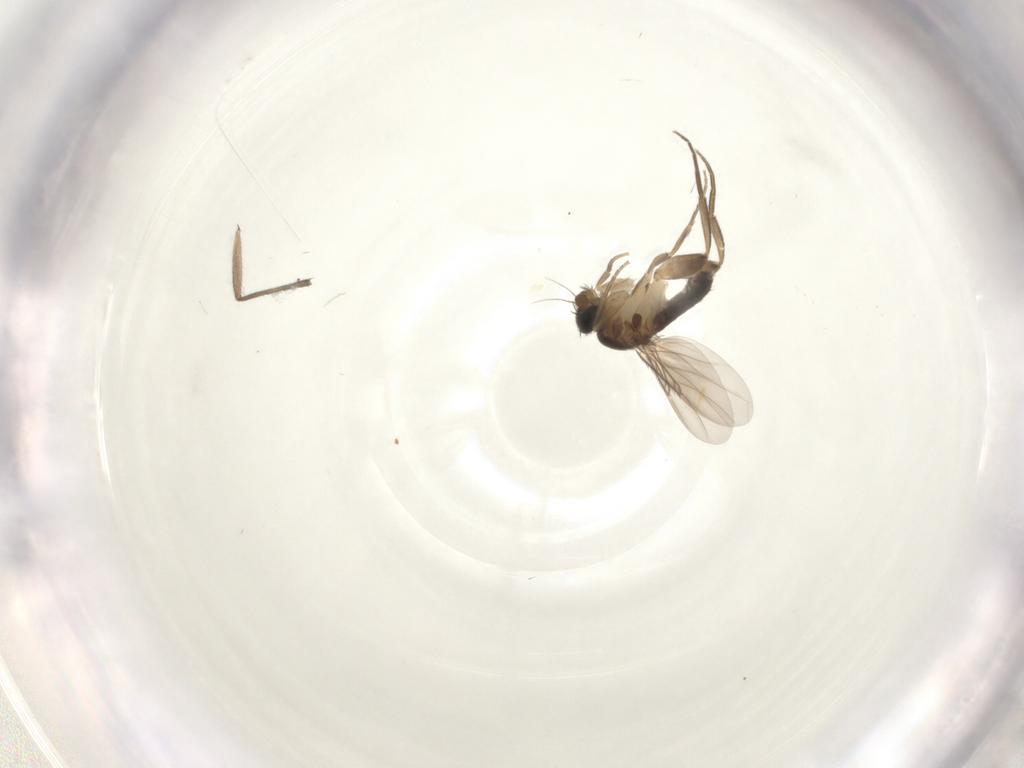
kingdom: Animalia
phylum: Arthropoda
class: Insecta
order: Diptera
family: Phoridae
